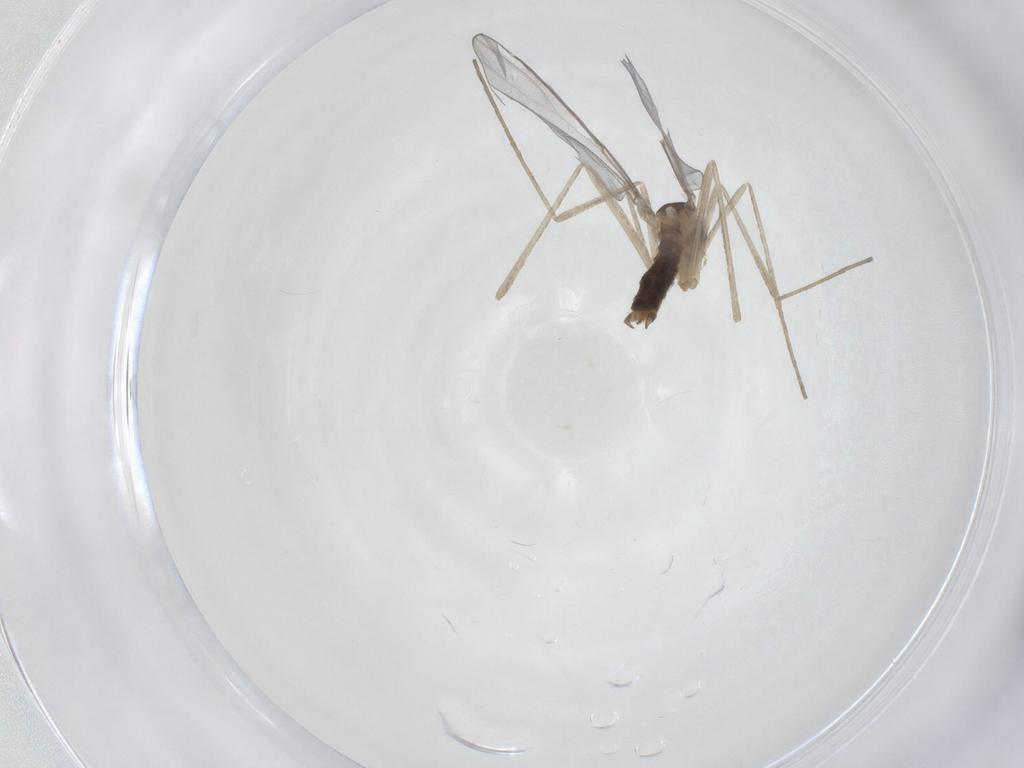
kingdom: Animalia
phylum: Arthropoda
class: Insecta
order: Diptera
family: Cecidomyiidae
